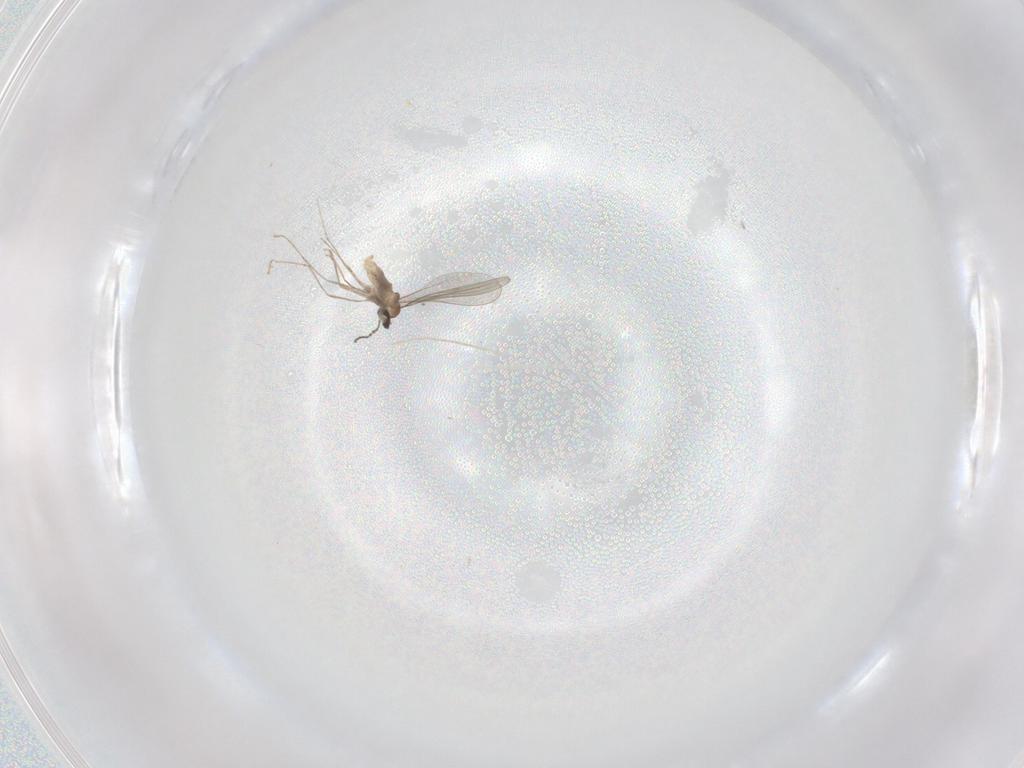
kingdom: Animalia
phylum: Arthropoda
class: Insecta
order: Diptera
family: Cecidomyiidae
